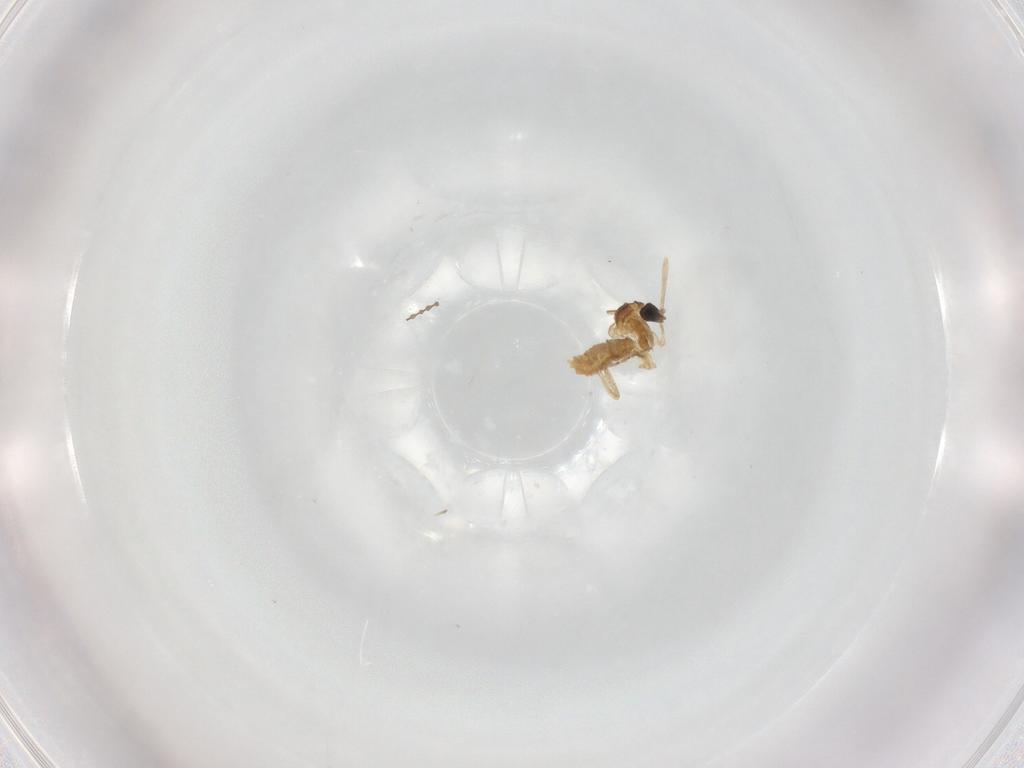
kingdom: Animalia
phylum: Arthropoda
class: Insecta
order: Diptera
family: Cecidomyiidae
